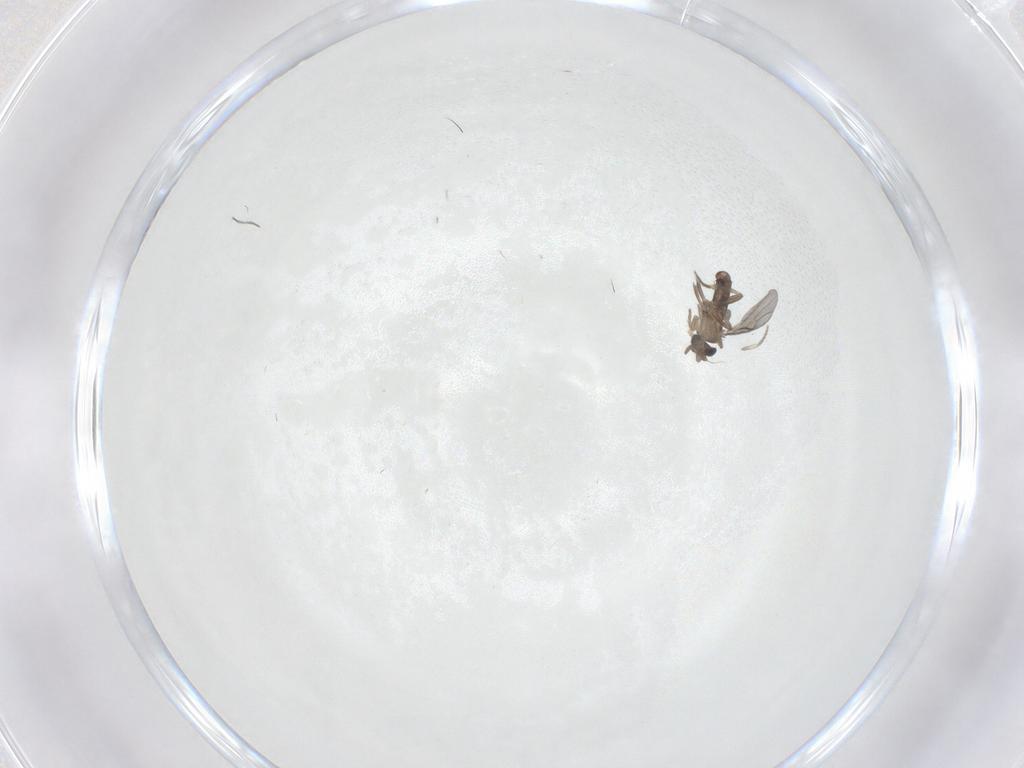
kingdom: Animalia
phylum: Arthropoda
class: Insecta
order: Diptera
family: Phoridae
